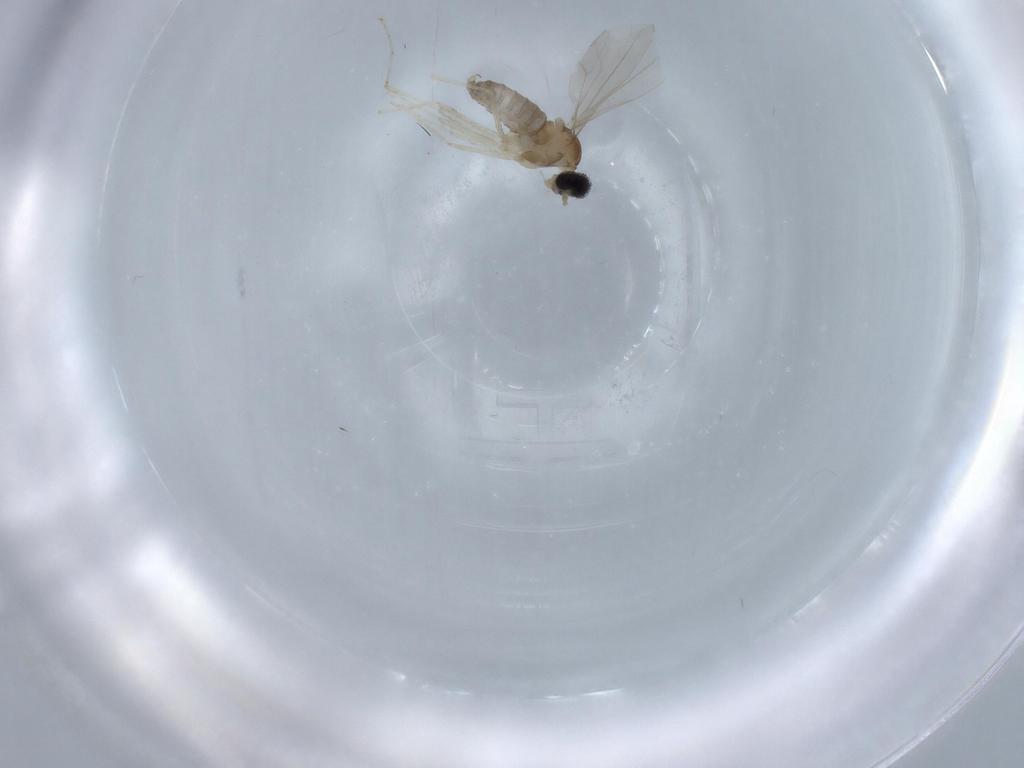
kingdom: Animalia
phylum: Arthropoda
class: Insecta
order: Diptera
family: Cecidomyiidae
